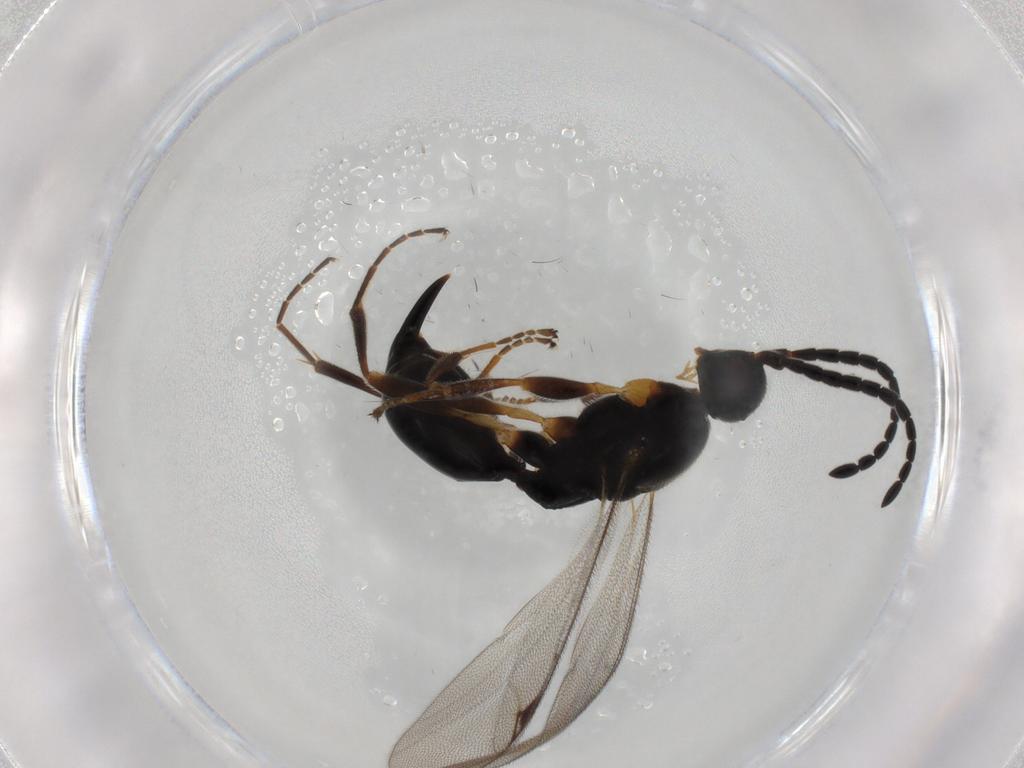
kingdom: Animalia
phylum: Arthropoda
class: Insecta
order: Hymenoptera
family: Proctotrupidae
